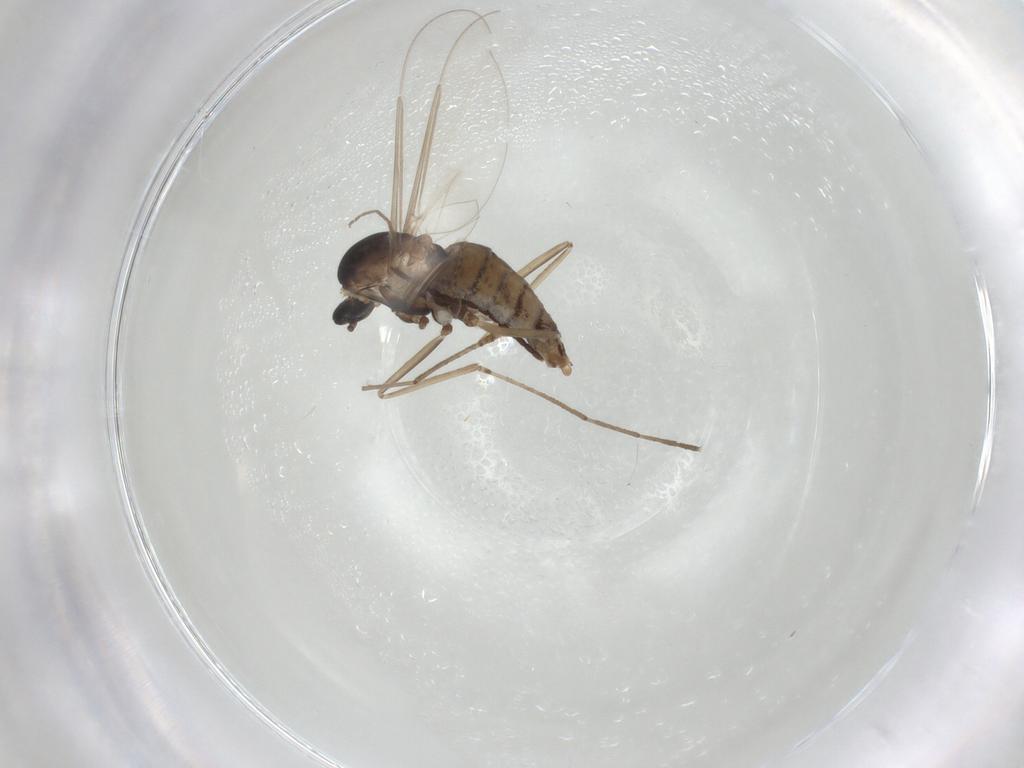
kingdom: Animalia
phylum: Arthropoda
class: Insecta
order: Diptera
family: Cecidomyiidae
